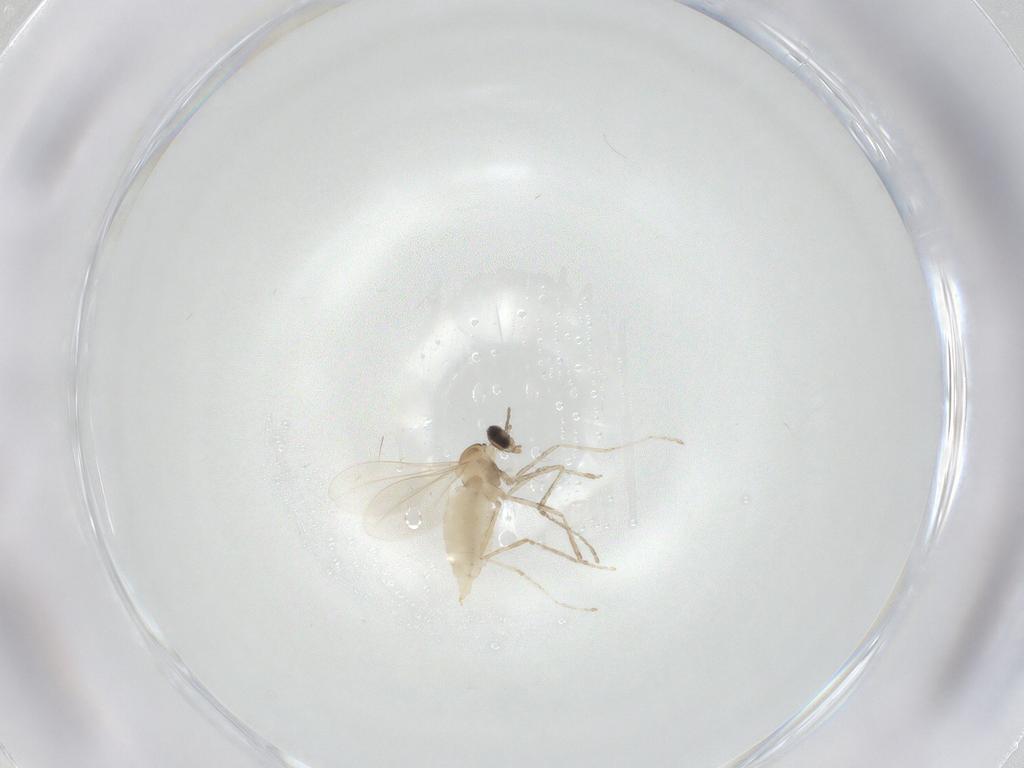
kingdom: Animalia
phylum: Arthropoda
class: Insecta
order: Diptera
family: Cecidomyiidae
